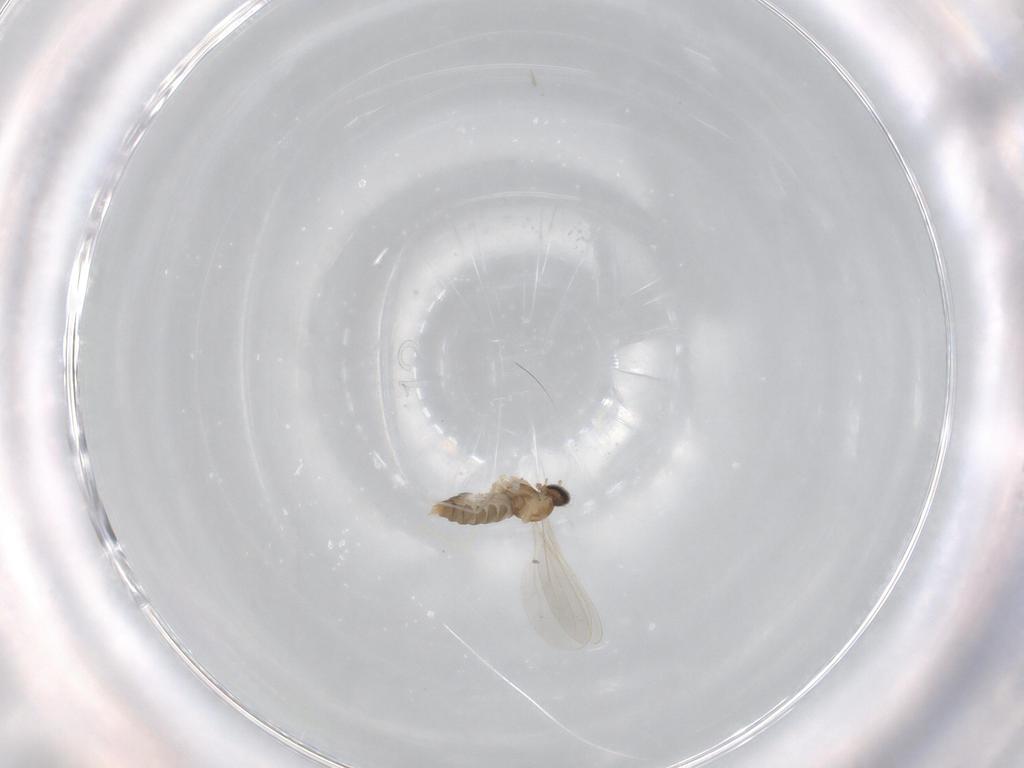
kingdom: Animalia
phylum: Arthropoda
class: Insecta
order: Diptera
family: Cecidomyiidae
